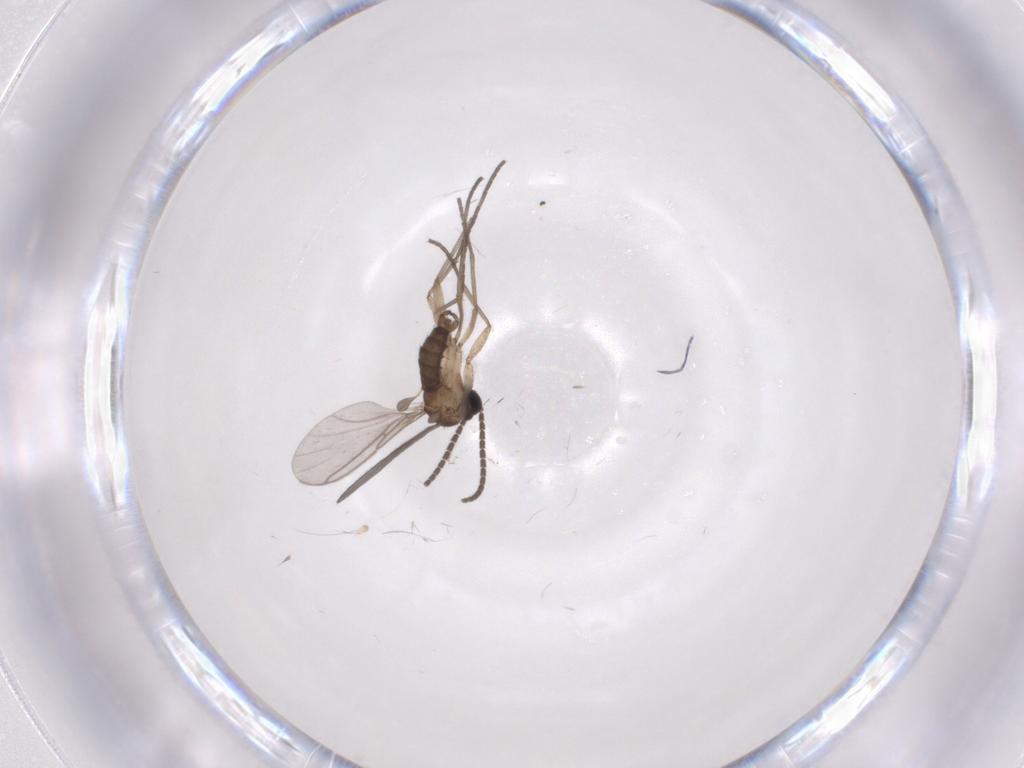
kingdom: Animalia
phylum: Arthropoda
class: Insecta
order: Diptera
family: Sciaridae
